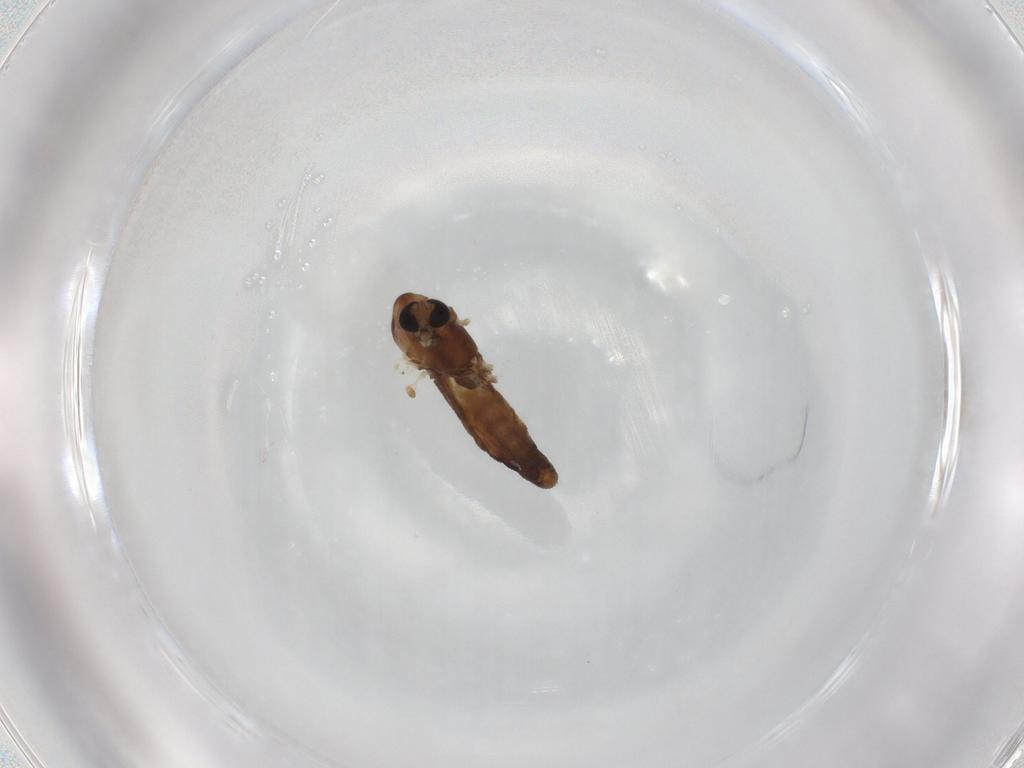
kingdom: Animalia
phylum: Arthropoda
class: Insecta
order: Diptera
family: Chironomidae
